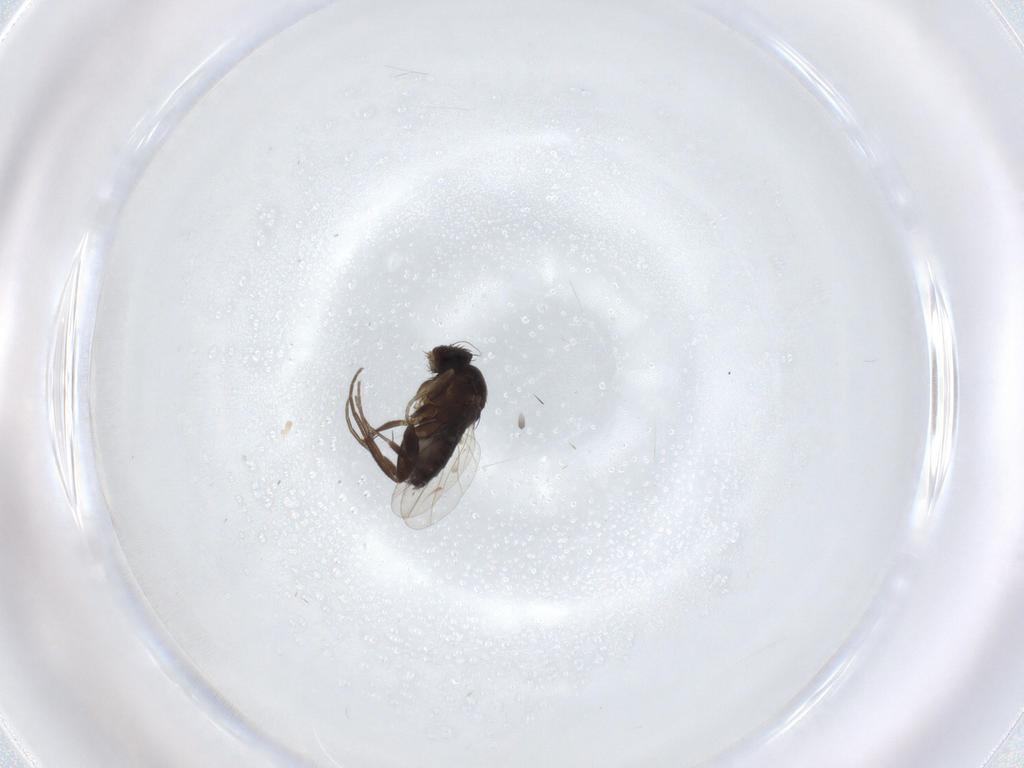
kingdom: Animalia
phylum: Arthropoda
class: Insecta
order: Diptera
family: Phoridae
